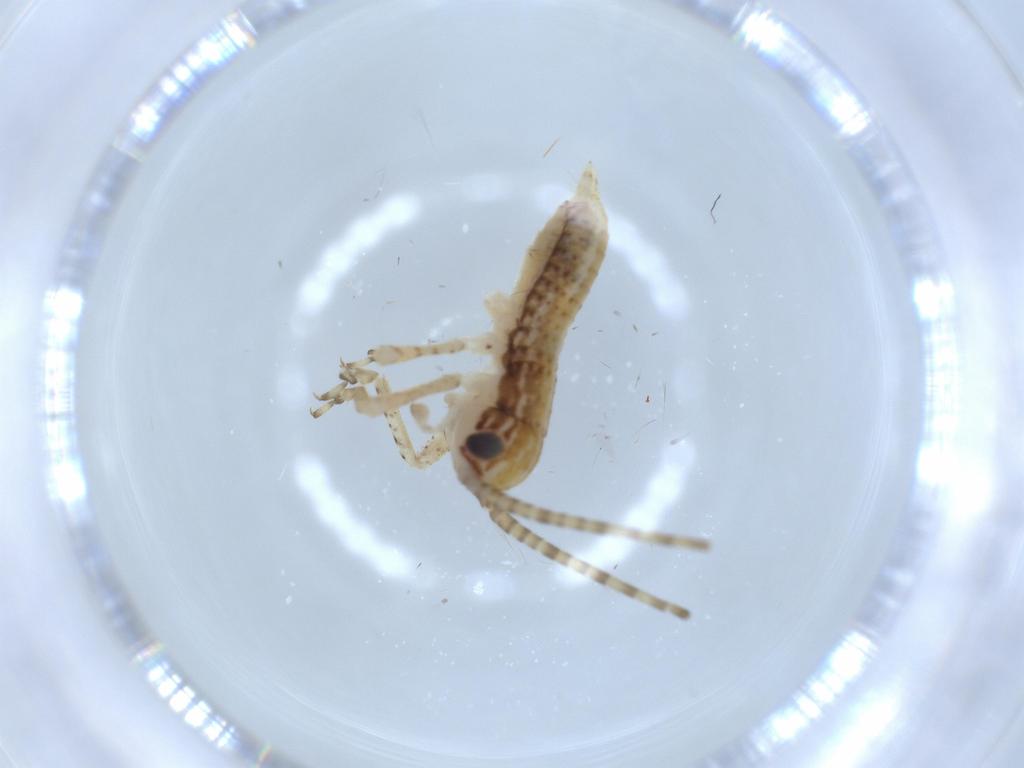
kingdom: Animalia
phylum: Arthropoda
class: Insecta
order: Orthoptera
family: Gryllidae
